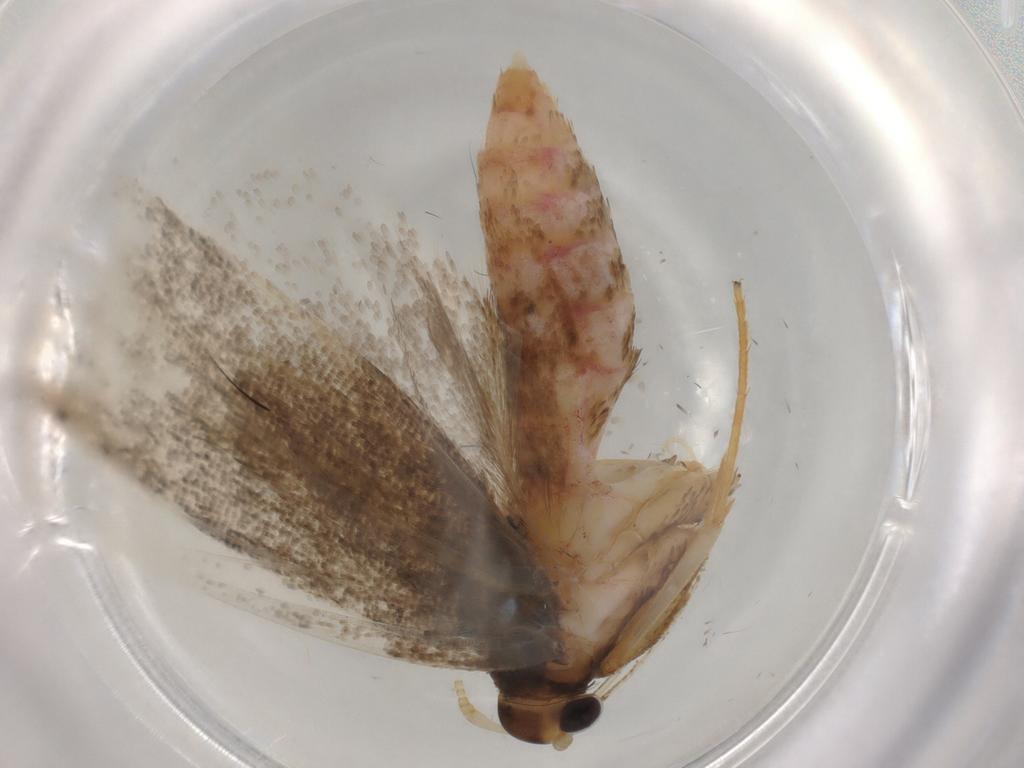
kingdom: Animalia
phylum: Arthropoda
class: Insecta
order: Lepidoptera
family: Lecithoceridae
